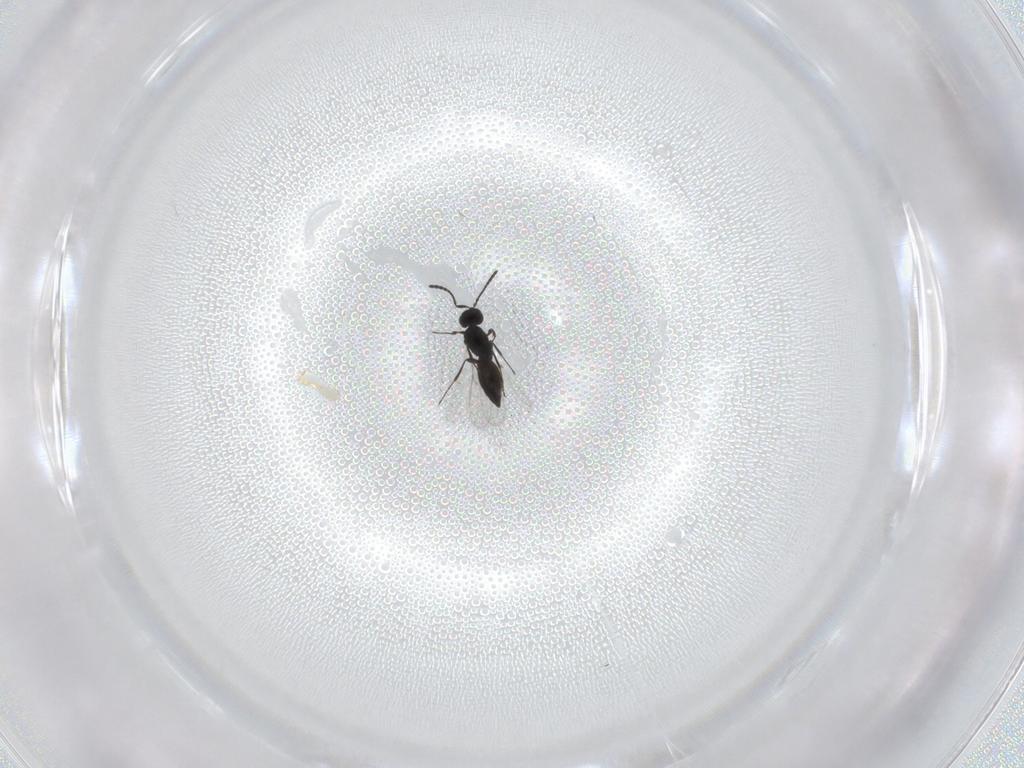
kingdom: Animalia
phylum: Arthropoda
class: Insecta
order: Hymenoptera
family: Scelionidae
